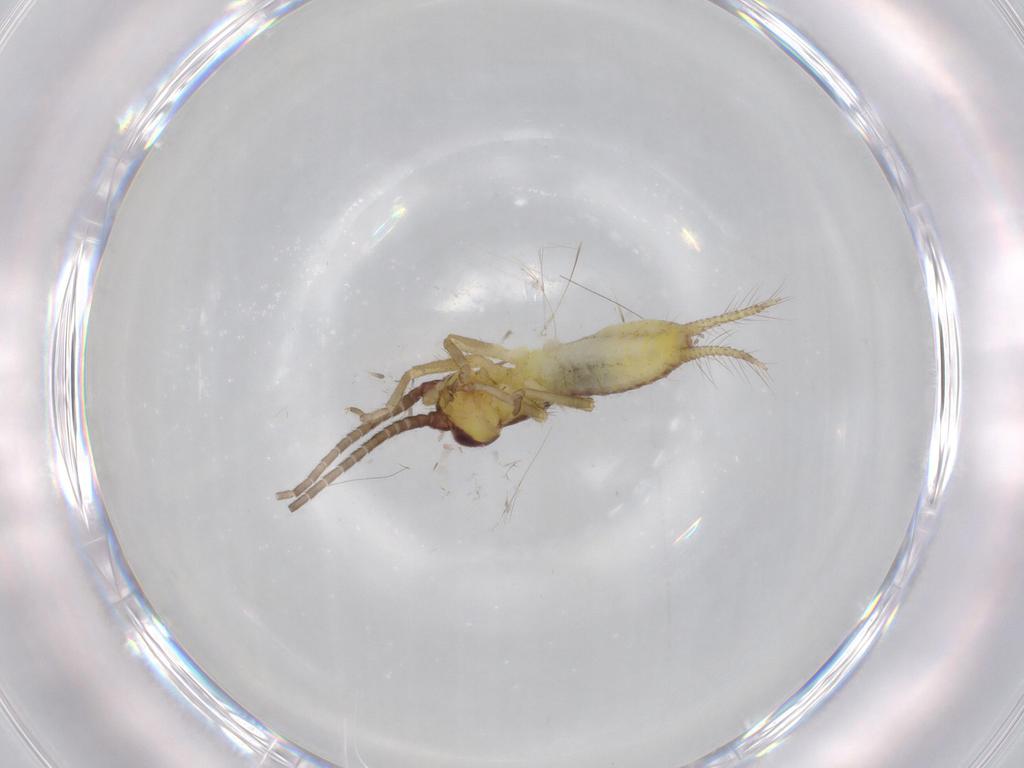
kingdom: Animalia
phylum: Arthropoda
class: Insecta
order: Orthoptera
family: Gryllidae
